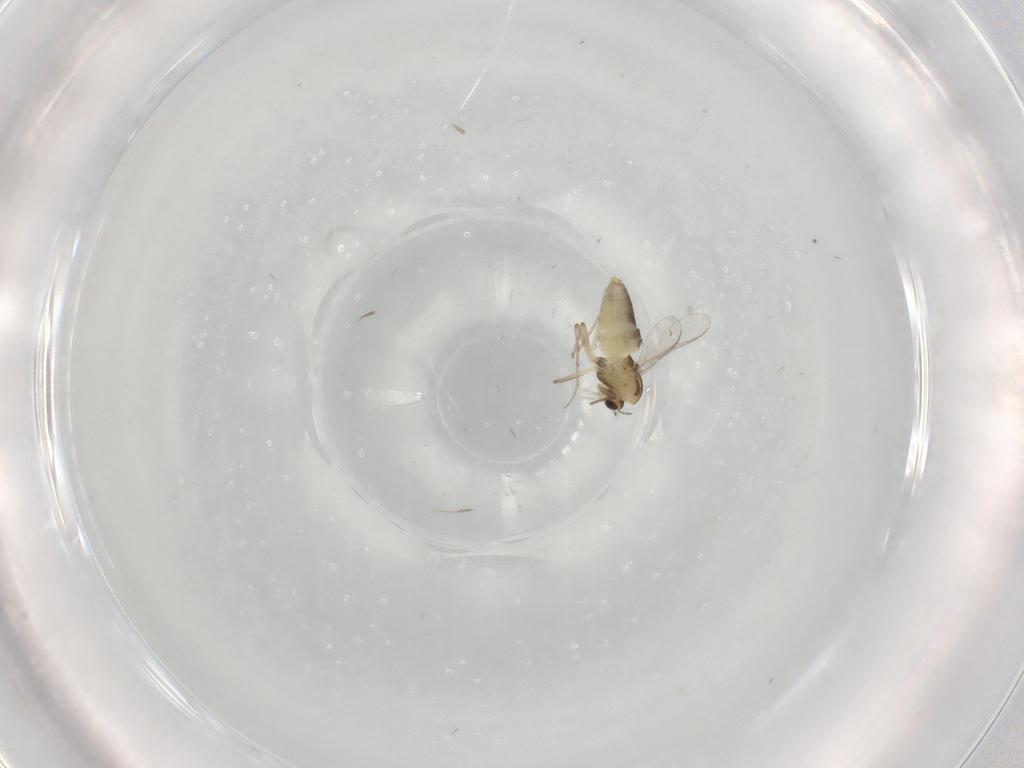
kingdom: Animalia
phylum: Arthropoda
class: Insecta
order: Diptera
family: Chironomidae
